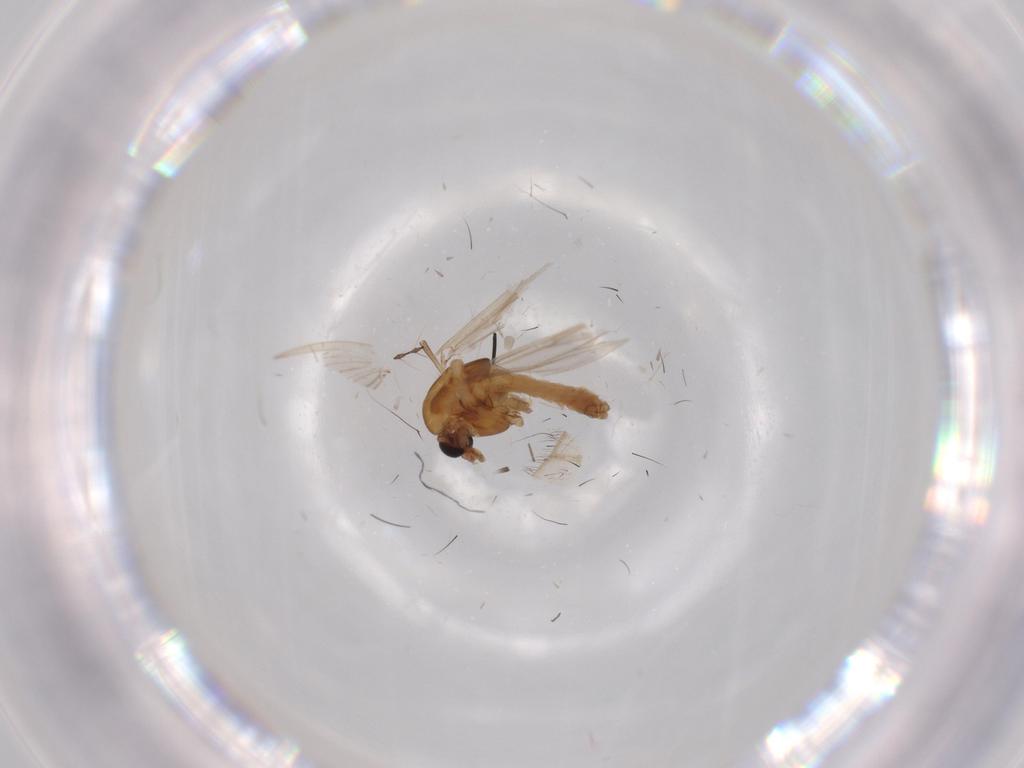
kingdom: Animalia
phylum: Arthropoda
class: Insecta
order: Diptera
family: Chironomidae
